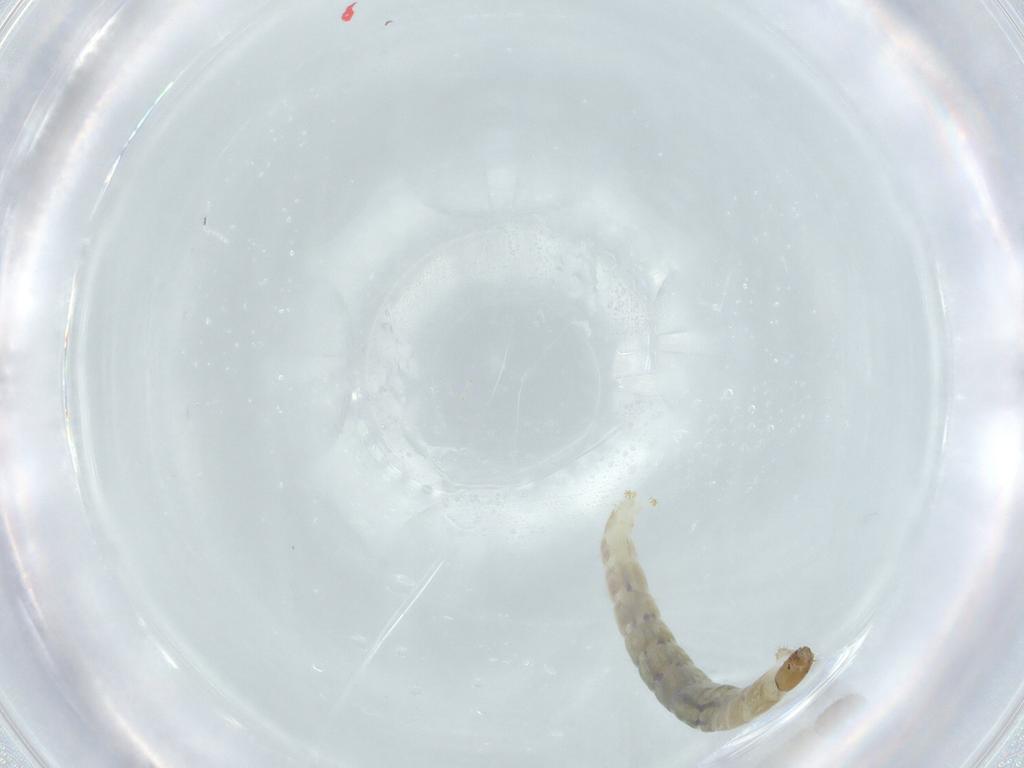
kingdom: Animalia
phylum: Arthropoda
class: Insecta
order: Diptera
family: Chironomidae
